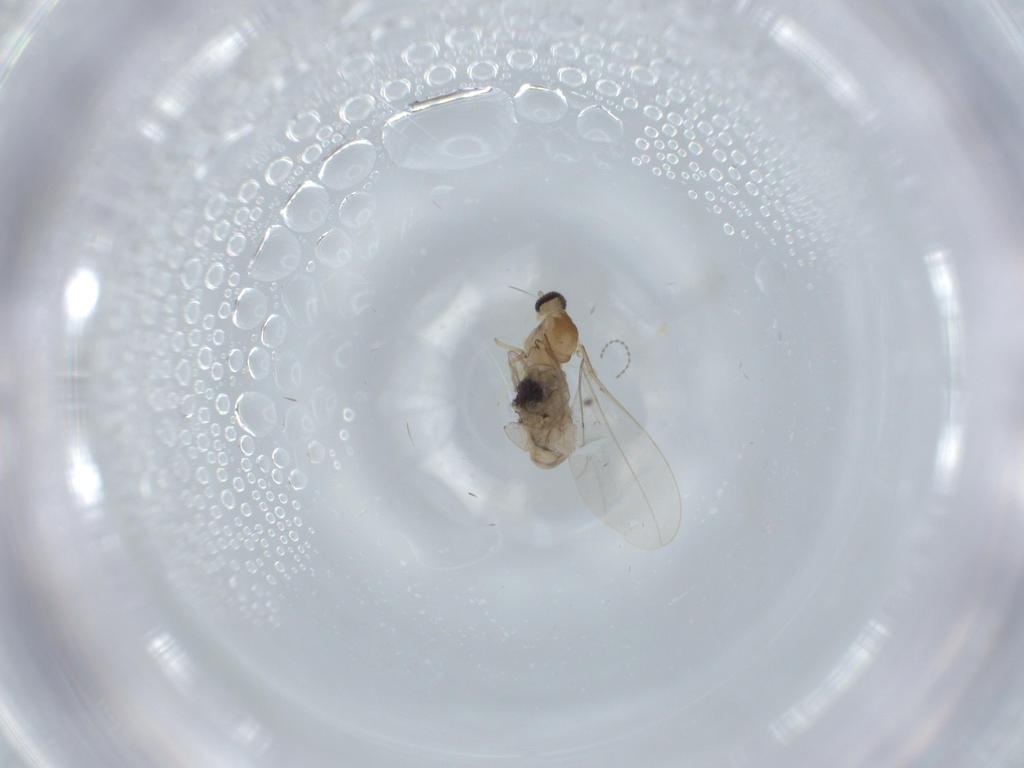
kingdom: Animalia
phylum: Arthropoda
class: Insecta
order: Diptera
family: Cecidomyiidae
